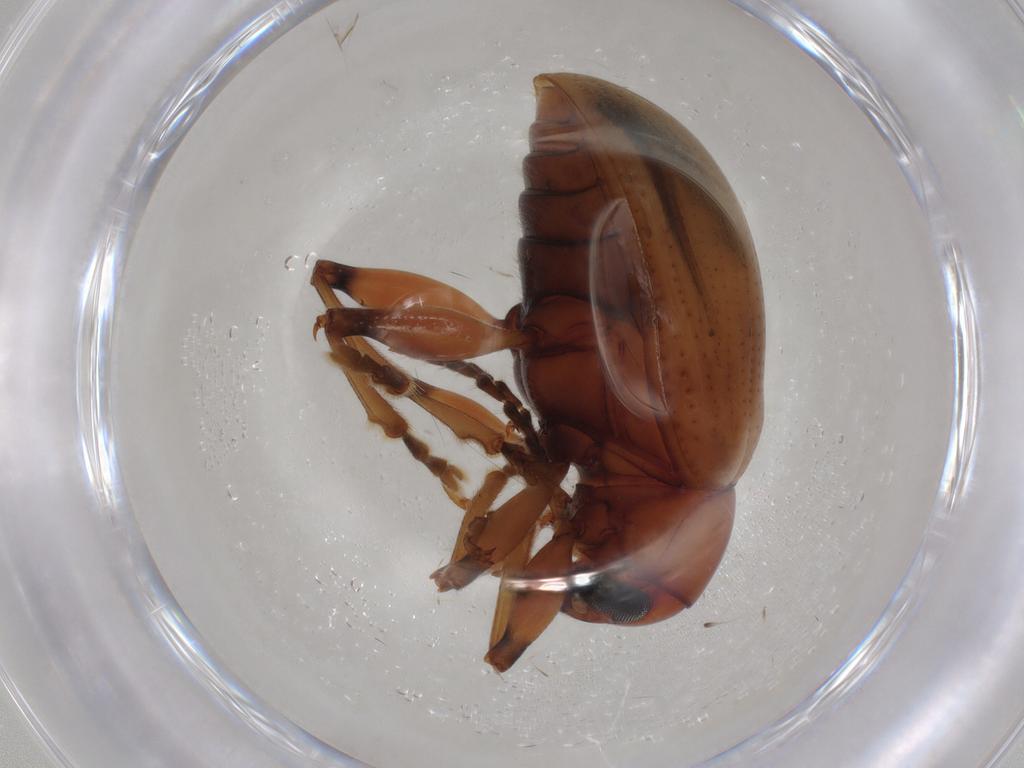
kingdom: Animalia
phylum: Arthropoda
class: Insecta
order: Coleoptera
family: Chrysomelidae
